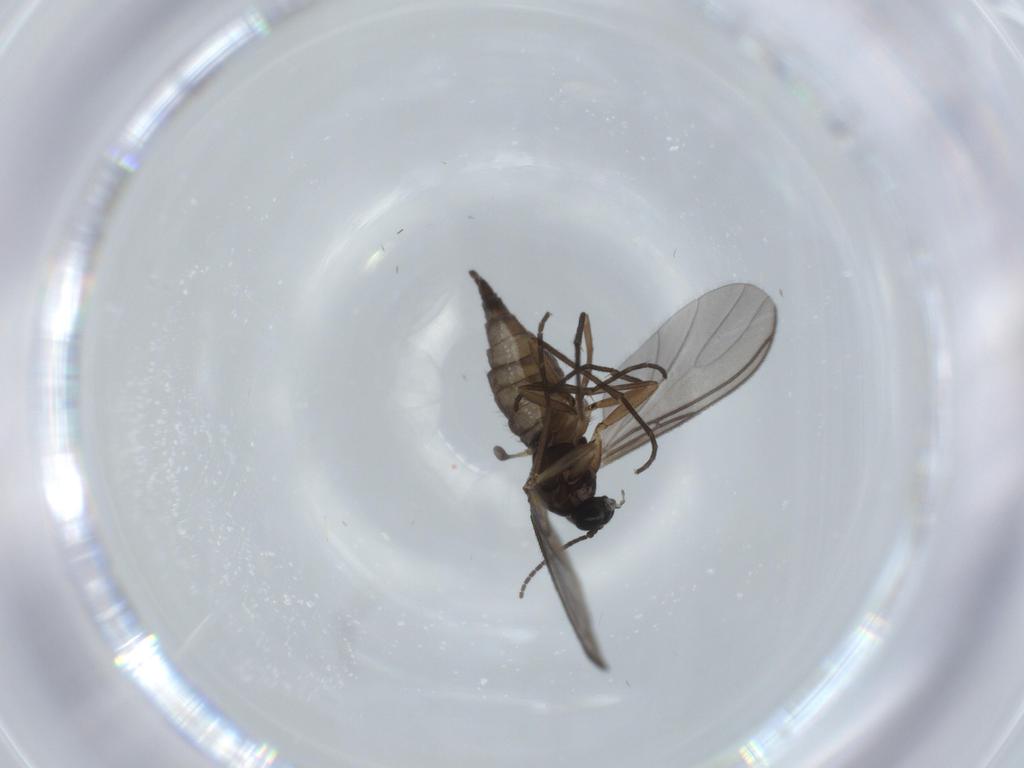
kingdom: Animalia
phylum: Arthropoda
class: Insecta
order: Diptera
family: Sciaridae
